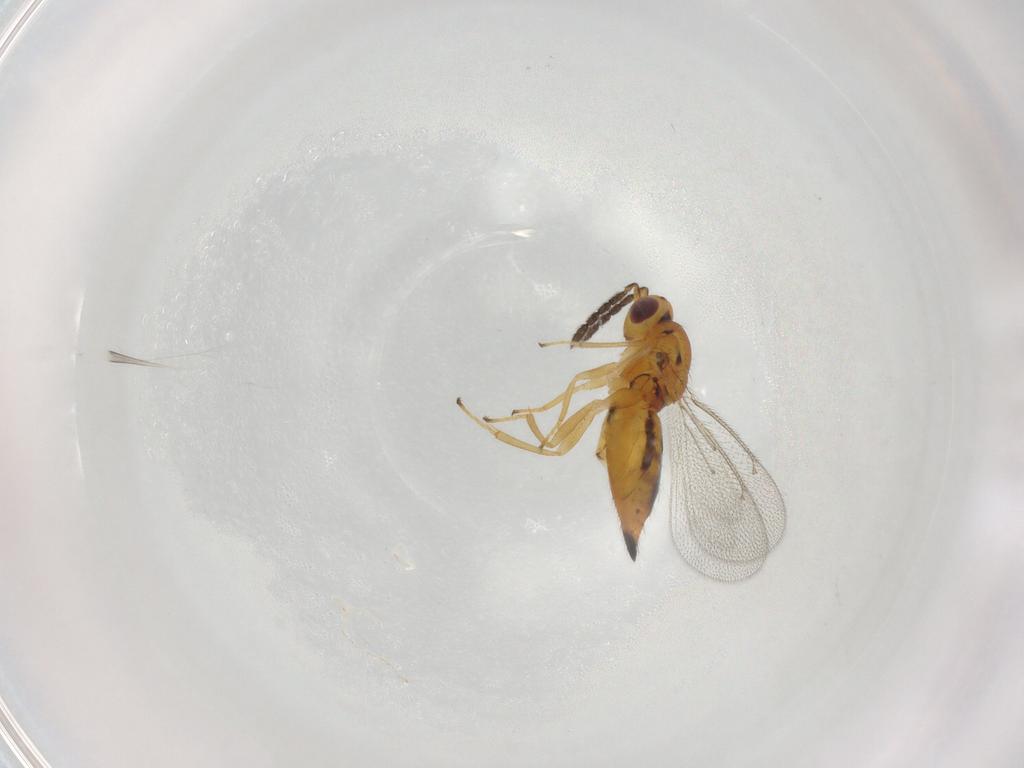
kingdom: Animalia
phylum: Arthropoda
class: Insecta
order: Hymenoptera
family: Eulophidae
